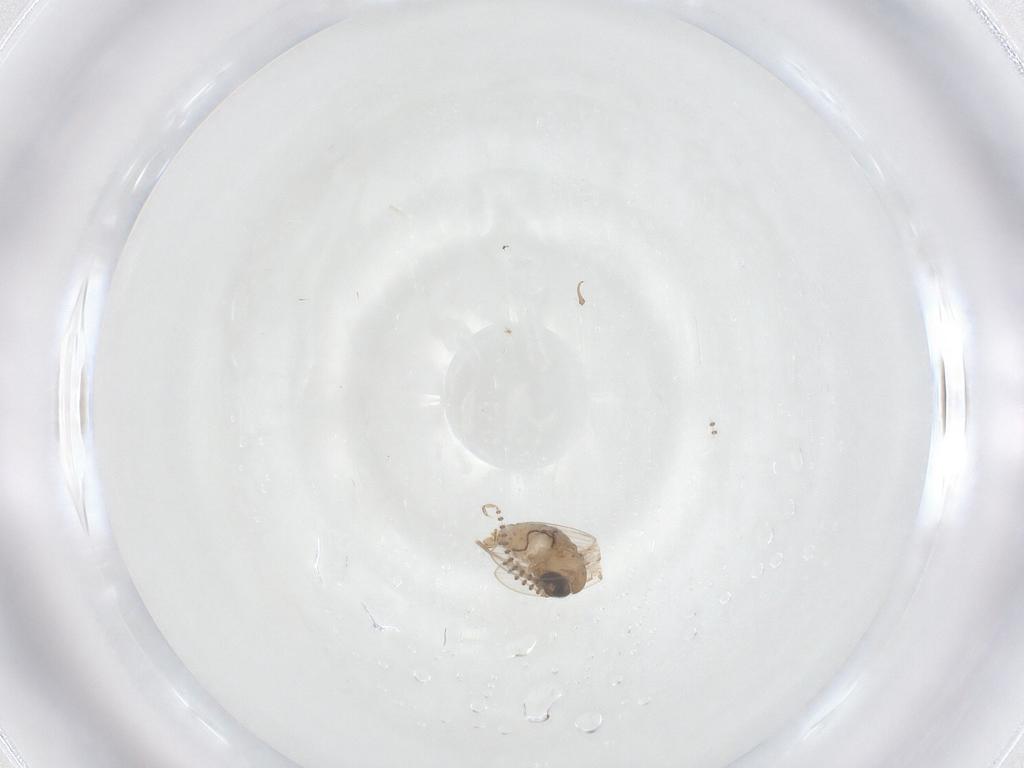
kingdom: Animalia
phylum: Arthropoda
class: Insecta
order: Diptera
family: Psychodidae
